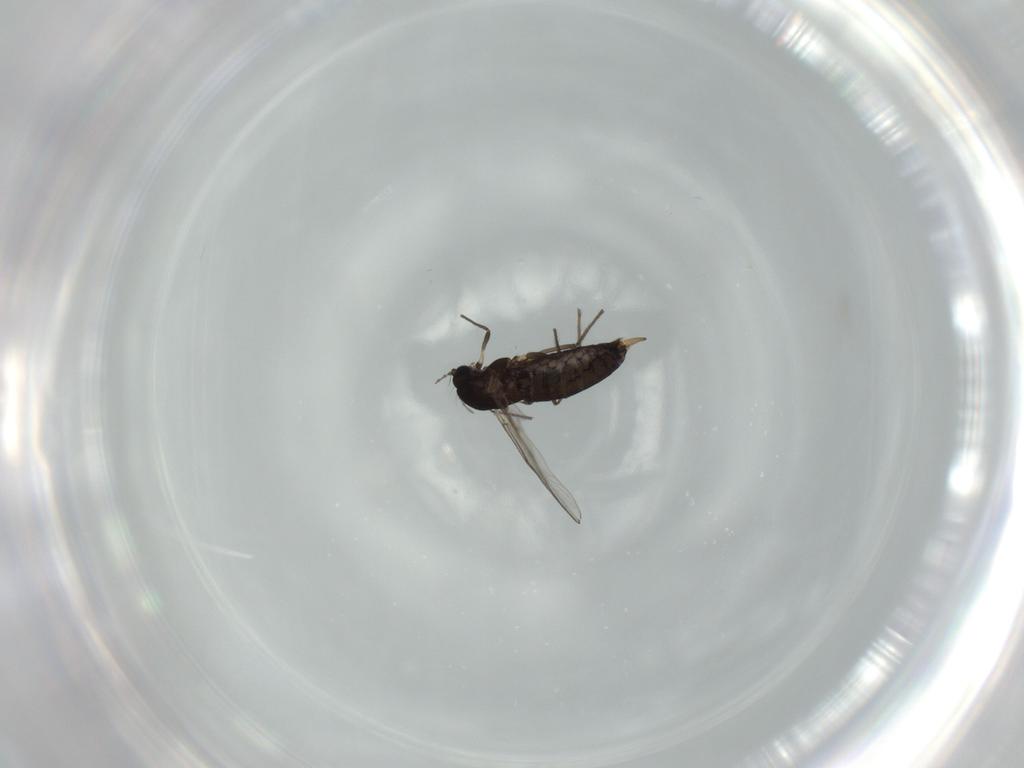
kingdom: Animalia
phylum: Arthropoda
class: Insecta
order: Diptera
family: Chironomidae
